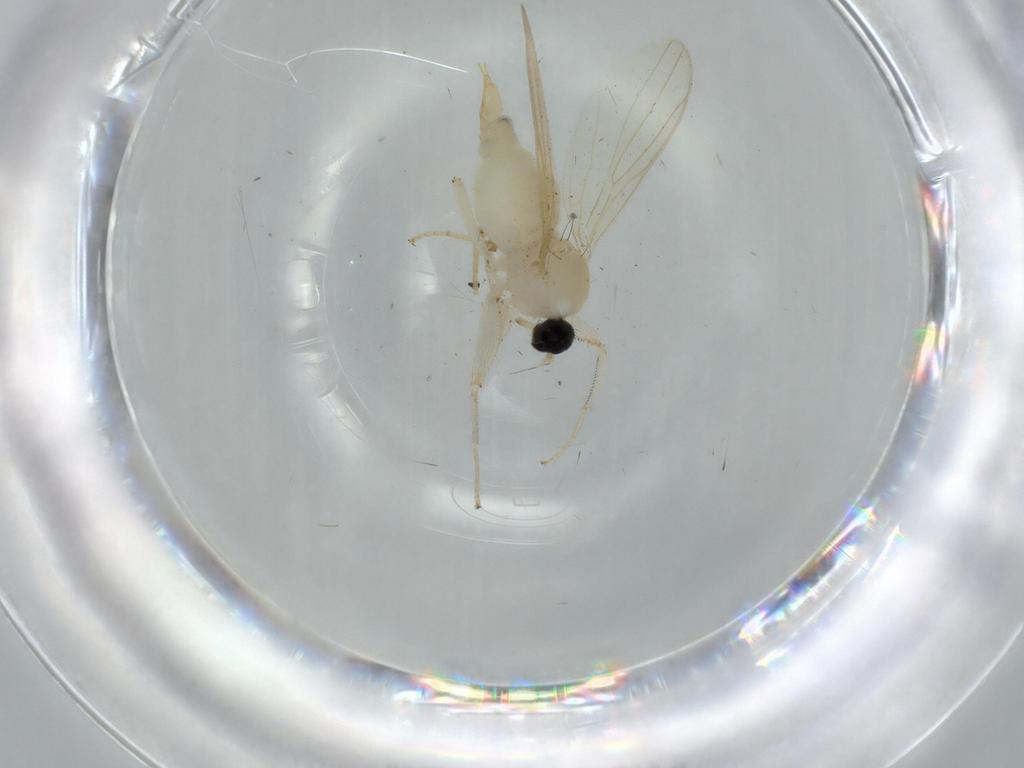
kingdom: Animalia
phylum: Arthropoda
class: Insecta
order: Diptera
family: Hybotidae
